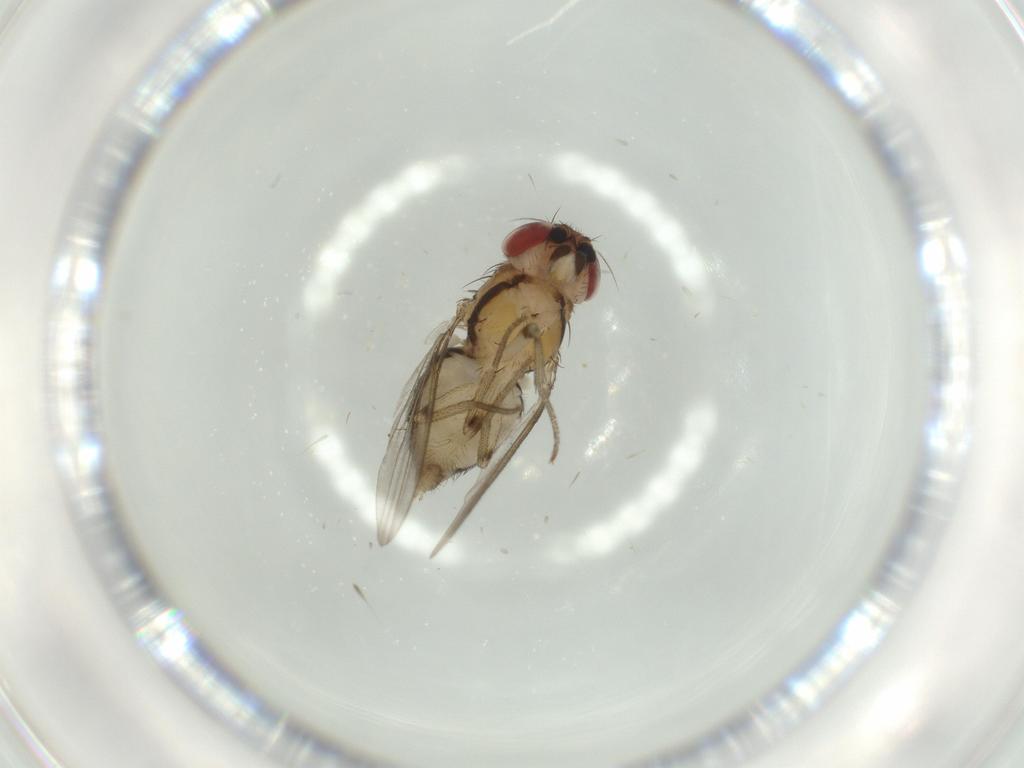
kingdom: Animalia
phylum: Arthropoda
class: Insecta
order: Diptera
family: Drosophilidae
